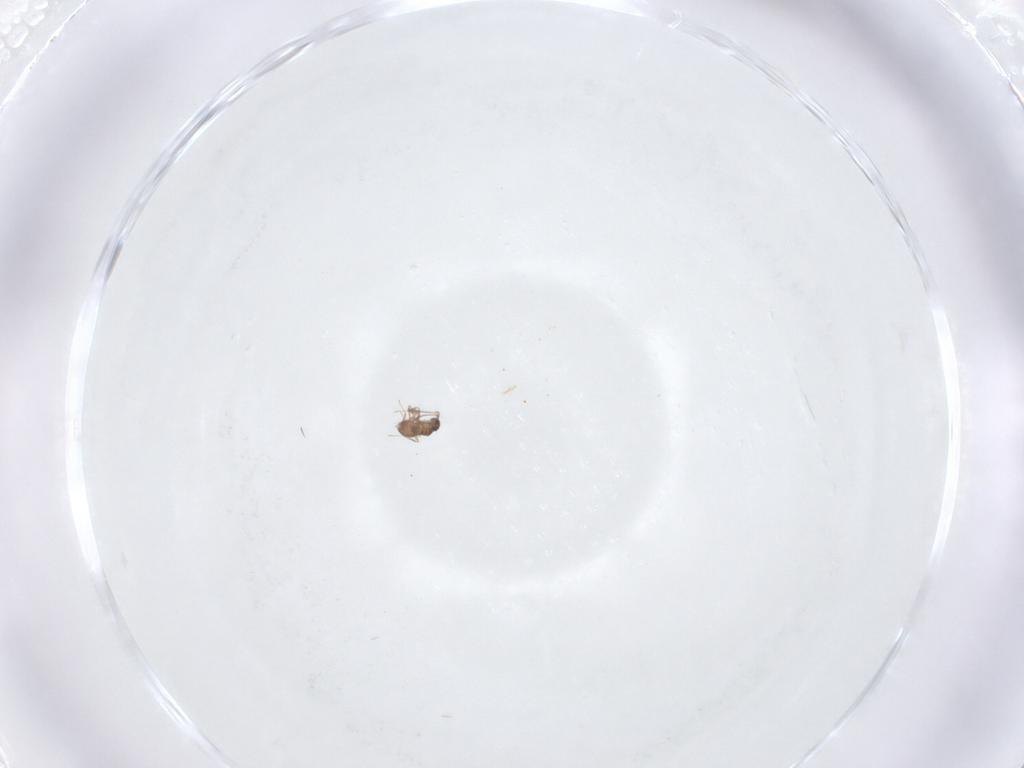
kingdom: Animalia
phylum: Arthropoda
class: Insecta
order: Hymenoptera
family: Mymaridae
